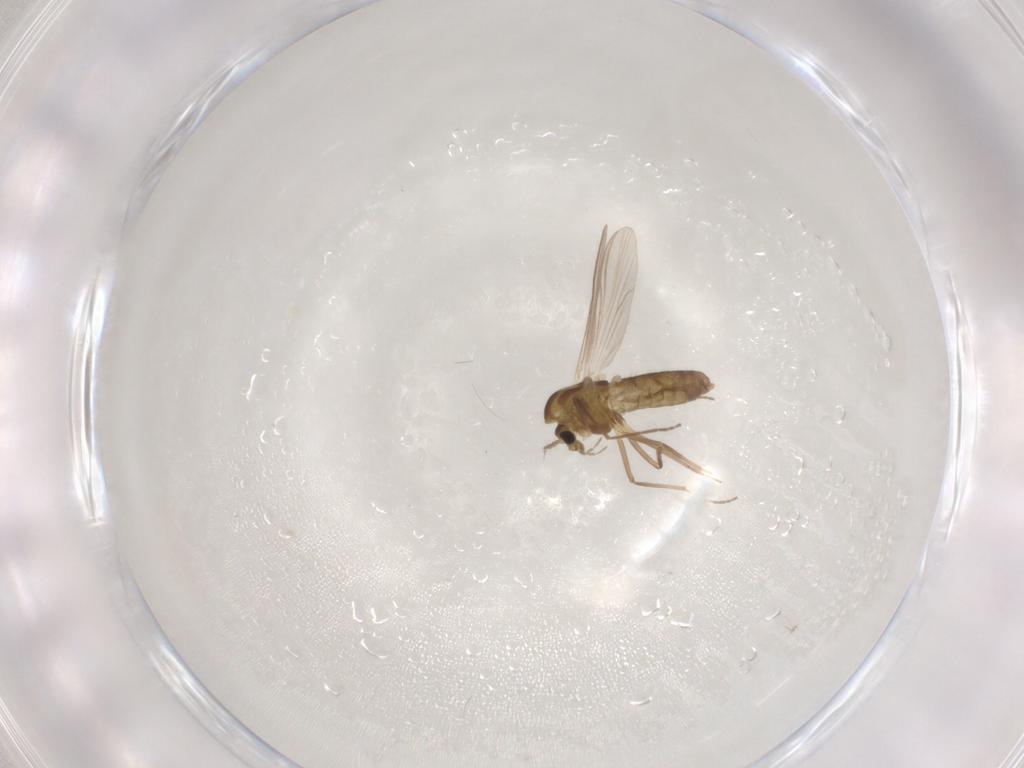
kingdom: Animalia
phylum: Arthropoda
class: Insecta
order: Diptera
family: Chironomidae
